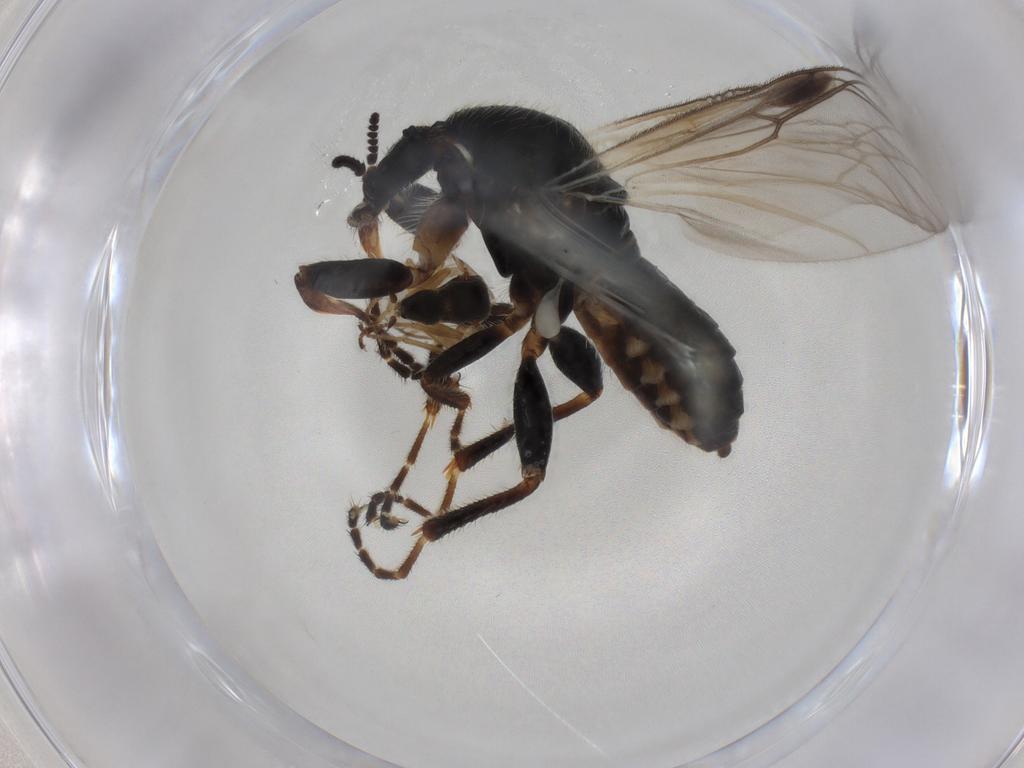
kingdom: Animalia
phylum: Arthropoda
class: Insecta
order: Diptera
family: Bibionidae
